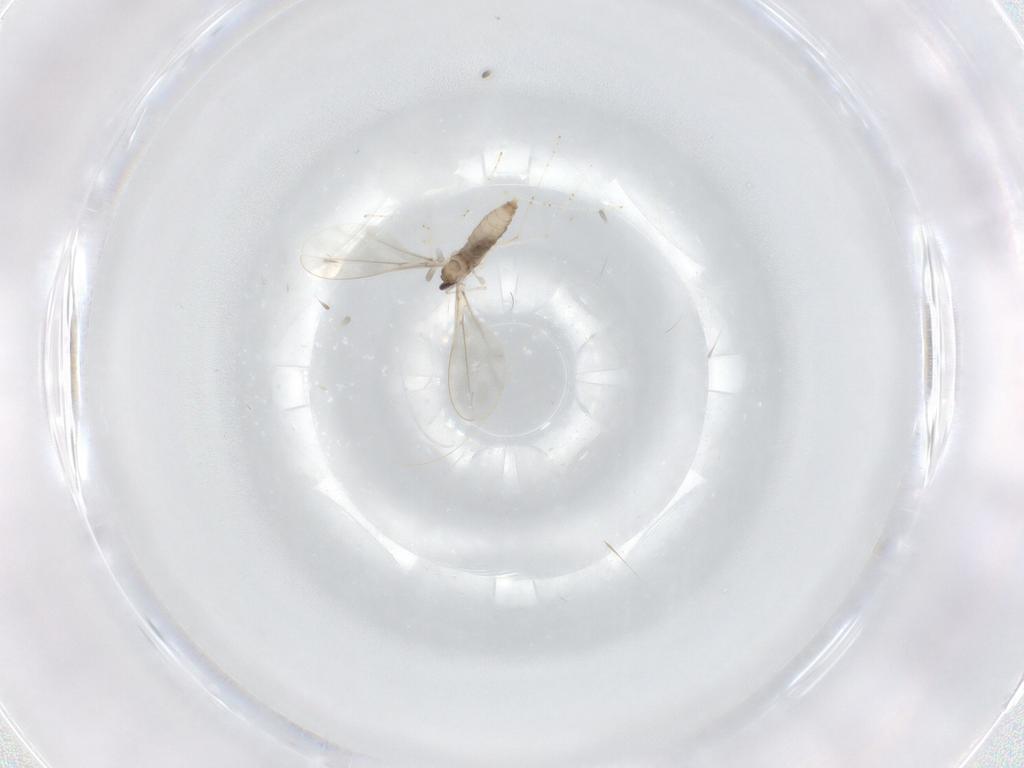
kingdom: Animalia
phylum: Arthropoda
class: Insecta
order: Diptera
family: Cecidomyiidae
